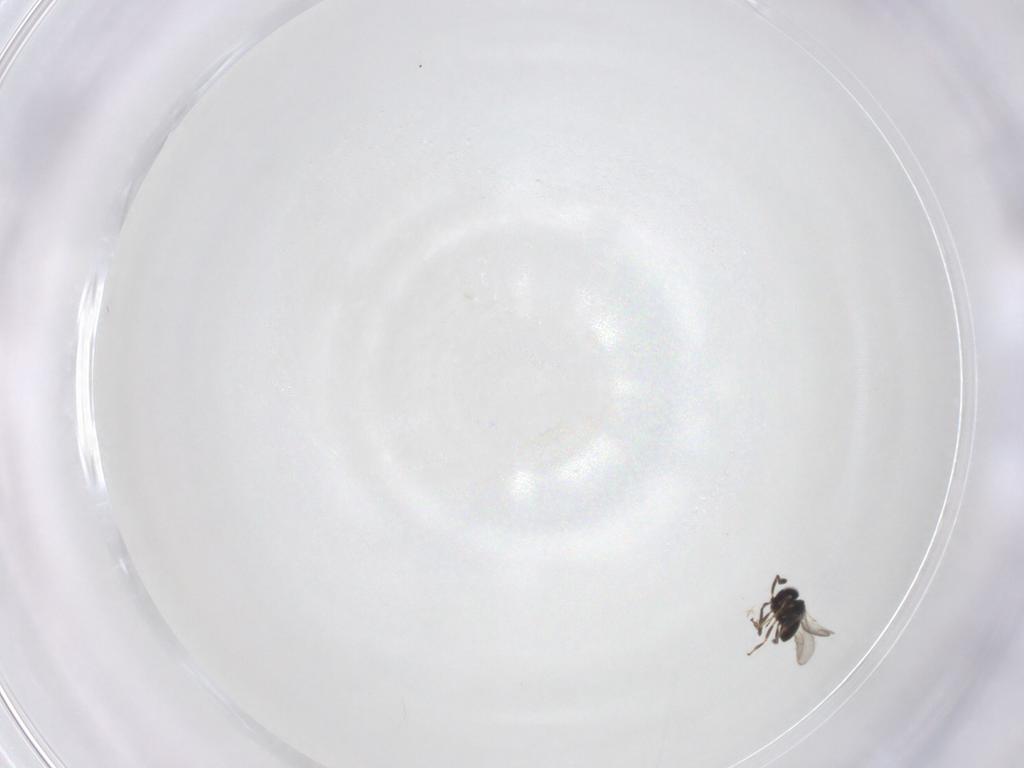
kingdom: Animalia
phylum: Arthropoda
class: Insecta
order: Hymenoptera
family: Scelionidae
